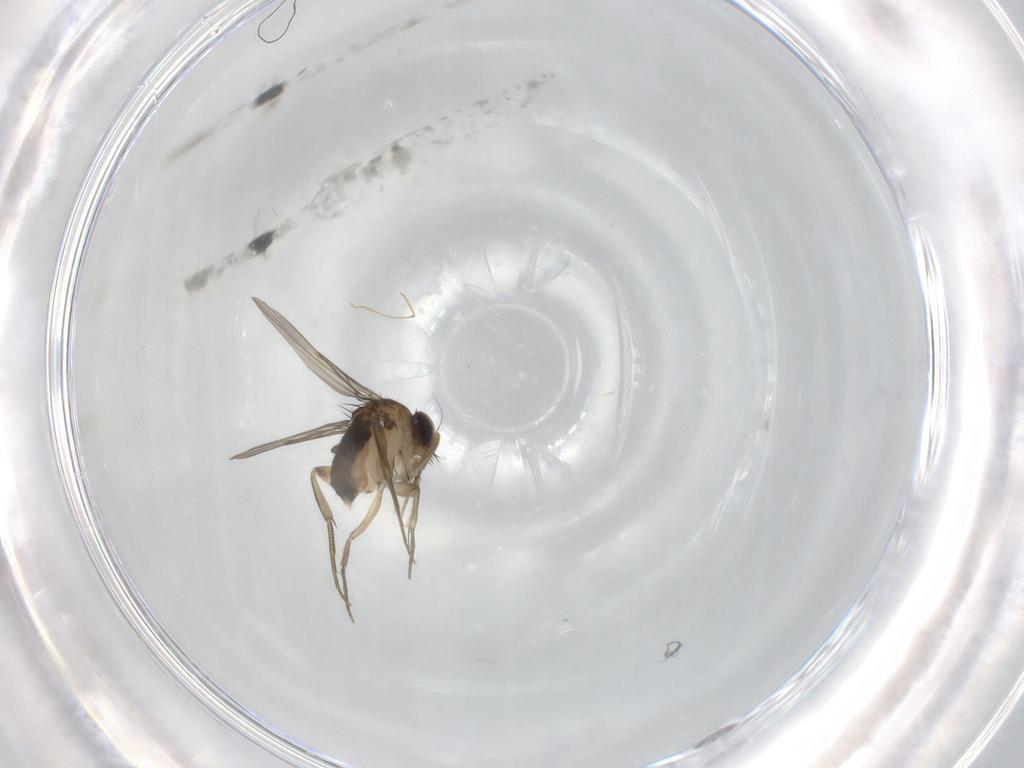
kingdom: Animalia
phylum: Arthropoda
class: Insecta
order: Diptera
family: Phoridae
